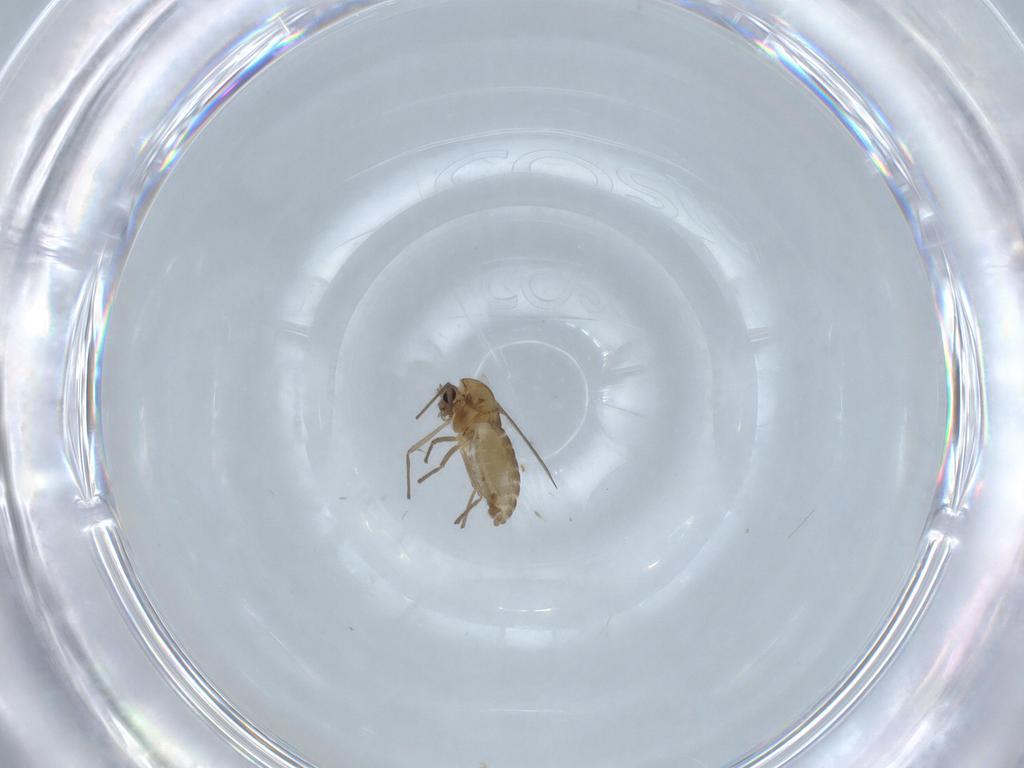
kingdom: Animalia
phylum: Arthropoda
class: Insecta
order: Diptera
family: Chironomidae
